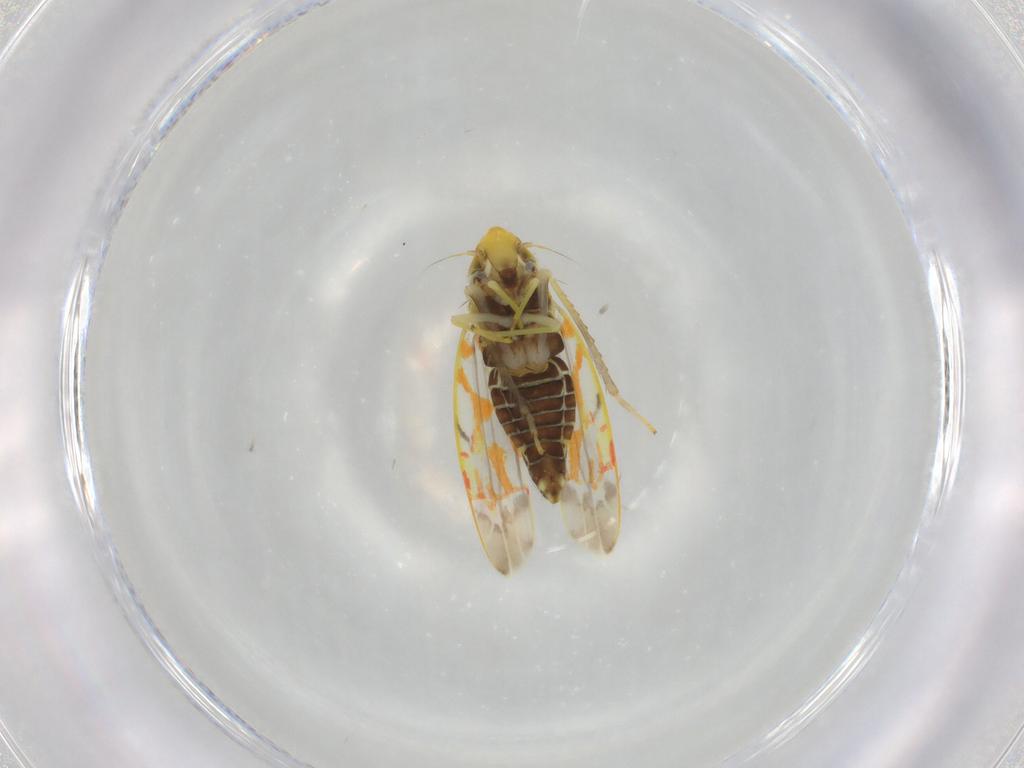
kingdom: Animalia
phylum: Arthropoda
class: Insecta
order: Hemiptera
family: Cicadellidae
